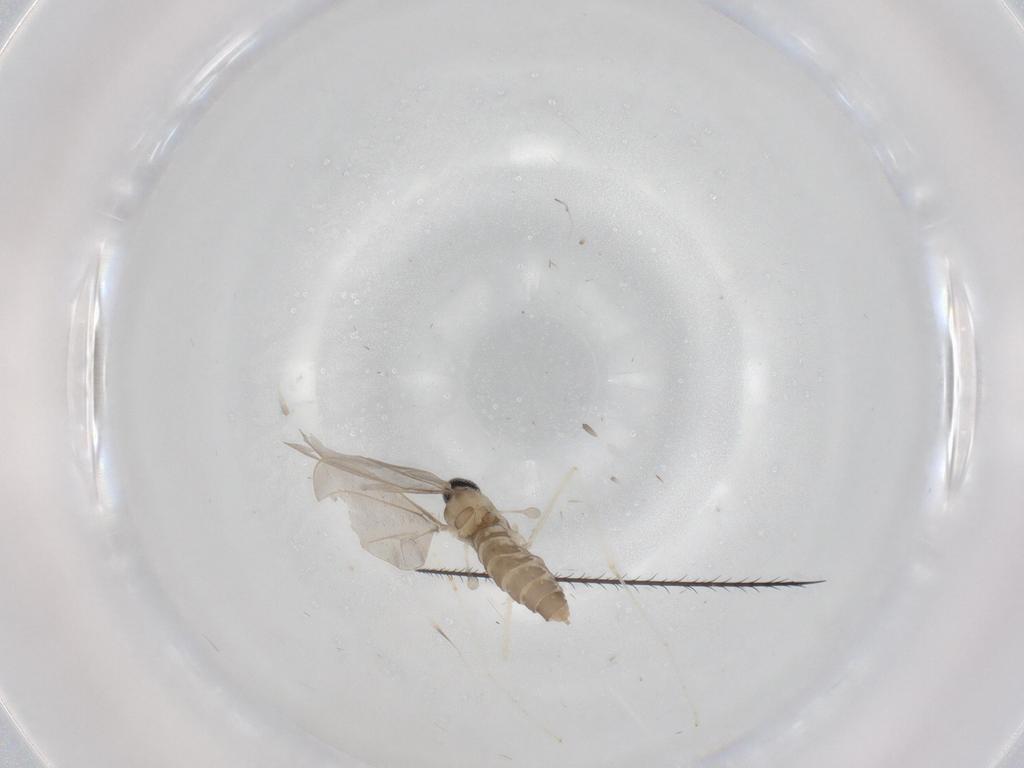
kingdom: Animalia
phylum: Arthropoda
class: Insecta
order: Diptera
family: Cecidomyiidae
